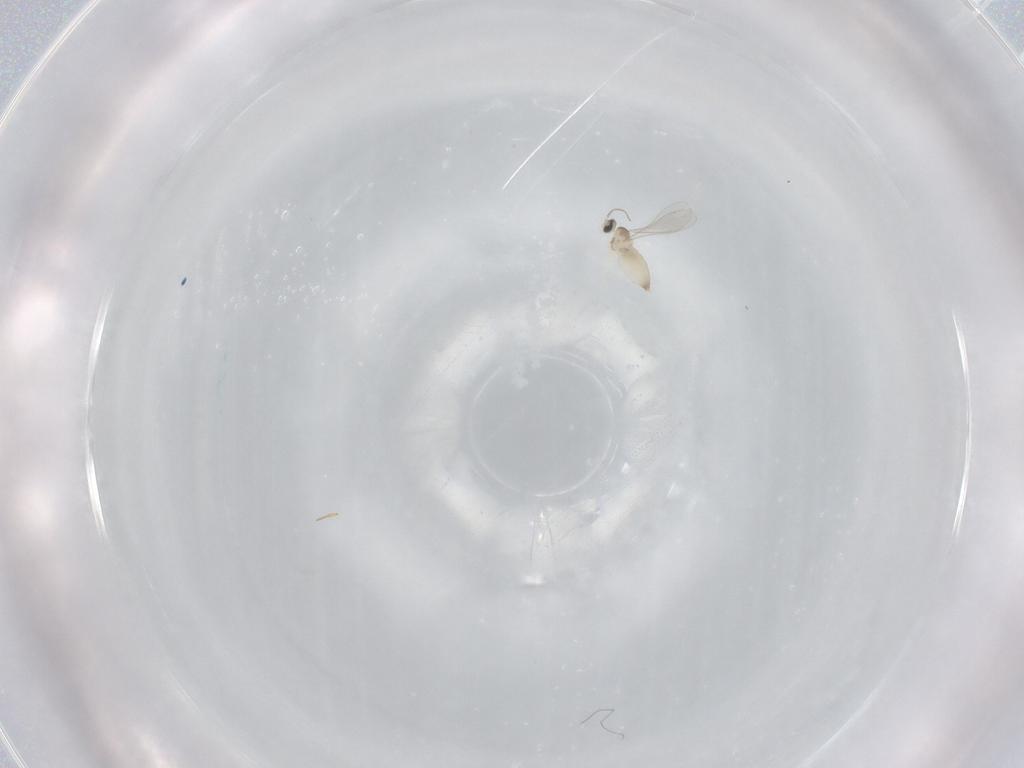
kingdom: Animalia
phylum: Arthropoda
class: Insecta
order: Diptera
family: Cecidomyiidae
